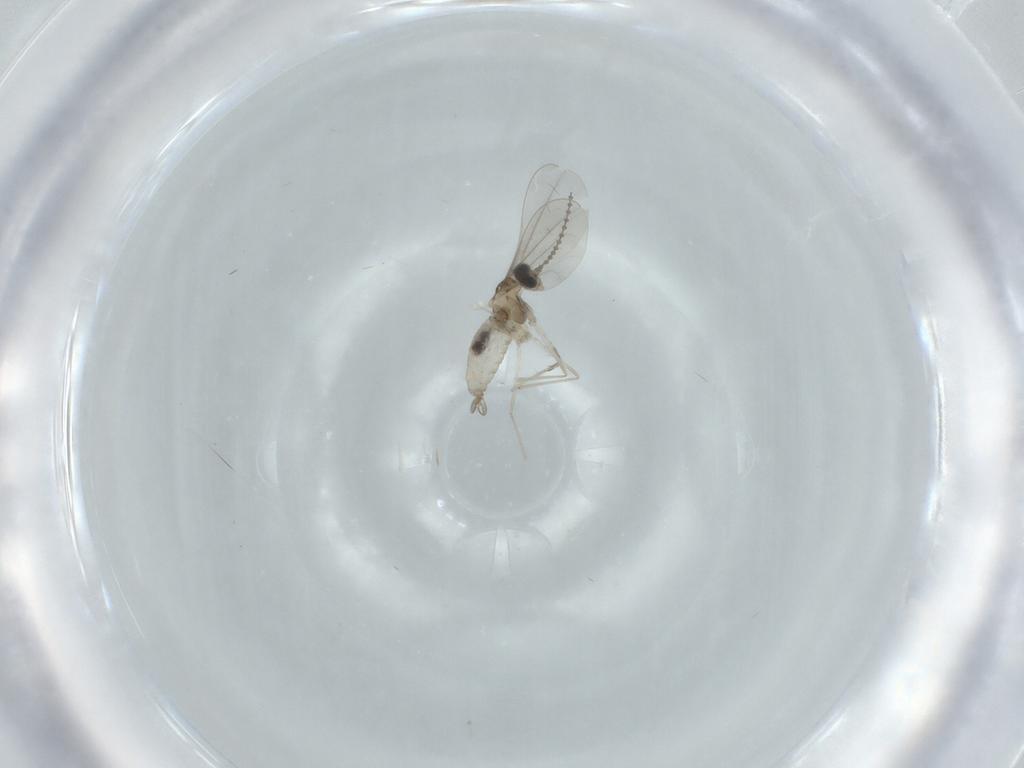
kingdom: Animalia
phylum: Arthropoda
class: Insecta
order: Diptera
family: Cecidomyiidae
